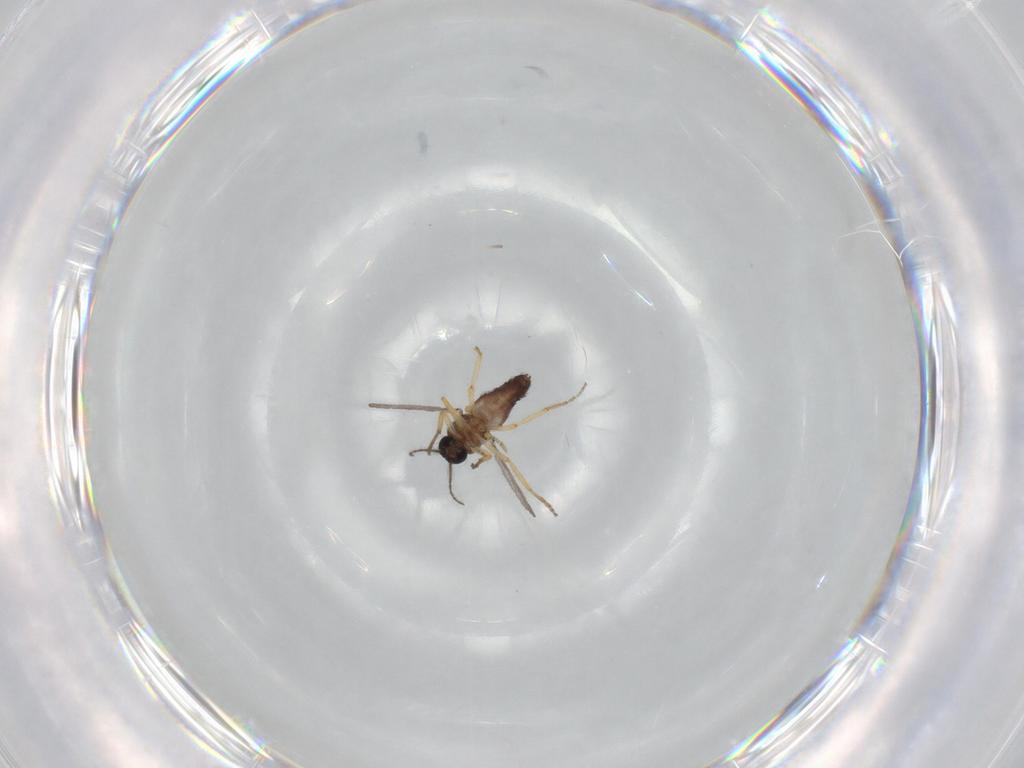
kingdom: Animalia
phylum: Arthropoda
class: Insecta
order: Diptera
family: Ceratopogonidae
